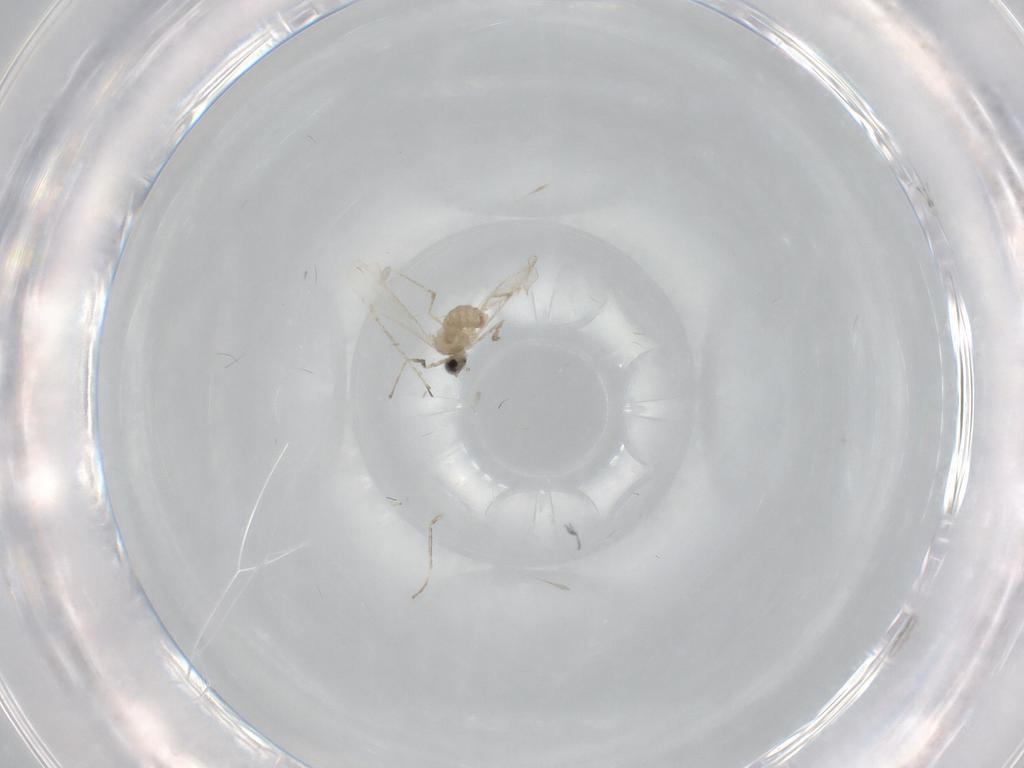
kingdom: Animalia
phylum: Arthropoda
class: Insecta
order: Diptera
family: Cecidomyiidae
